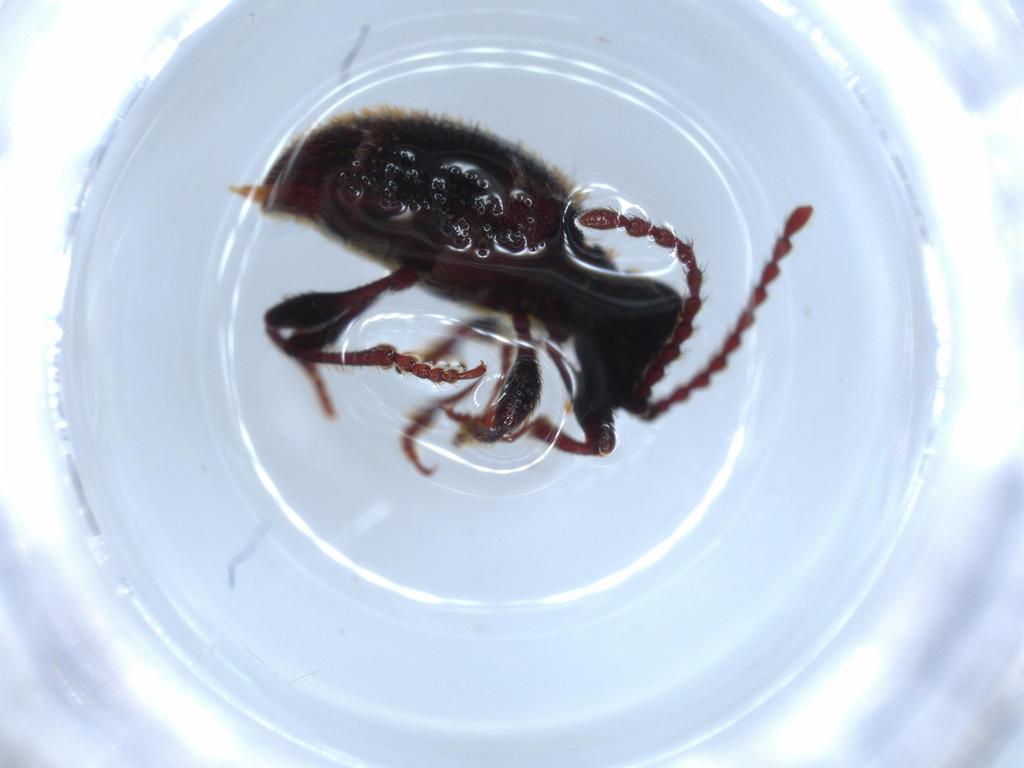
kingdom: Animalia
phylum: Arthropoda
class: Insecta
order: Coleoptera
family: Ptinidae
